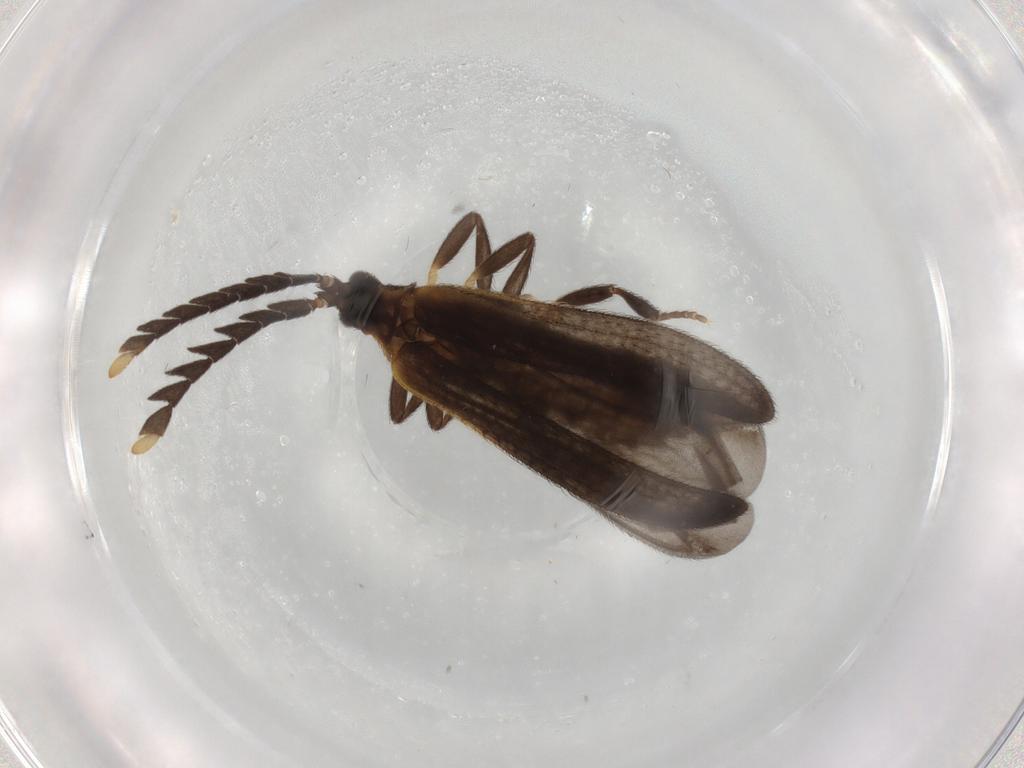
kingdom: Animalia
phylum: Arthropoda
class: Insecta
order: Coleoptera
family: Lycidae
